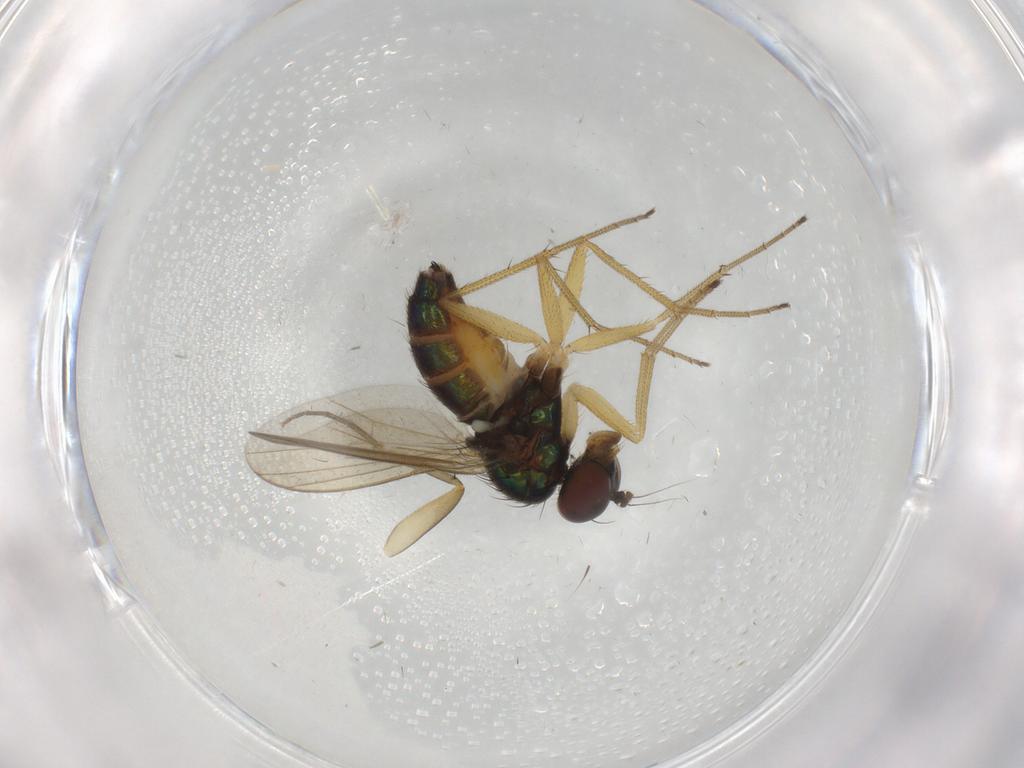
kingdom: Animalia
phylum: Arthropoda
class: Insecta
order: Diptera
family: Dolichopodidae
